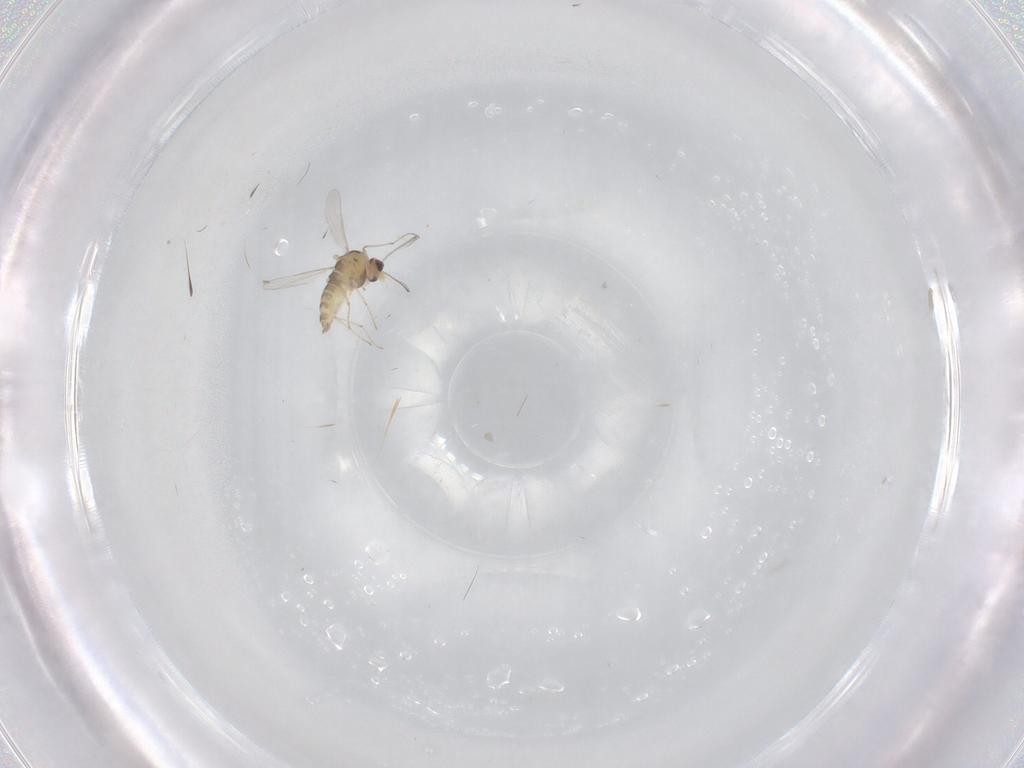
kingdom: Animalia
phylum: Arthropoda
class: Insecta
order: Diptera
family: Chironomidae
